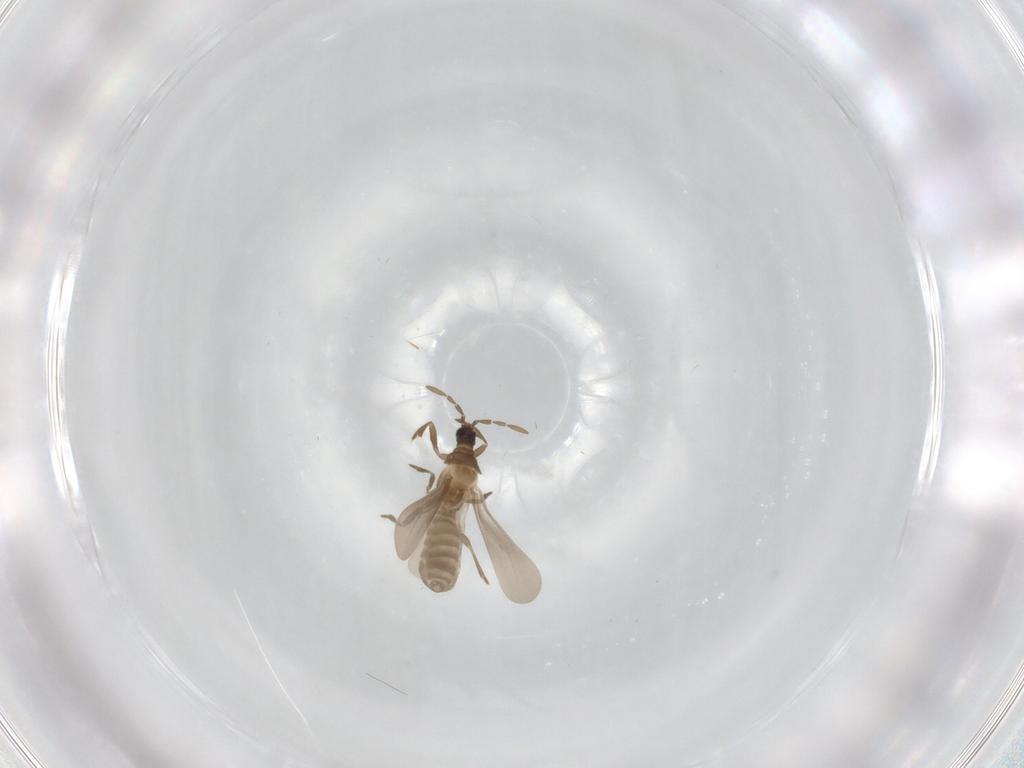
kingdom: Animalia
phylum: Arthropoda
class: Insecta
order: Hemiptera
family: Enicocephalidae
